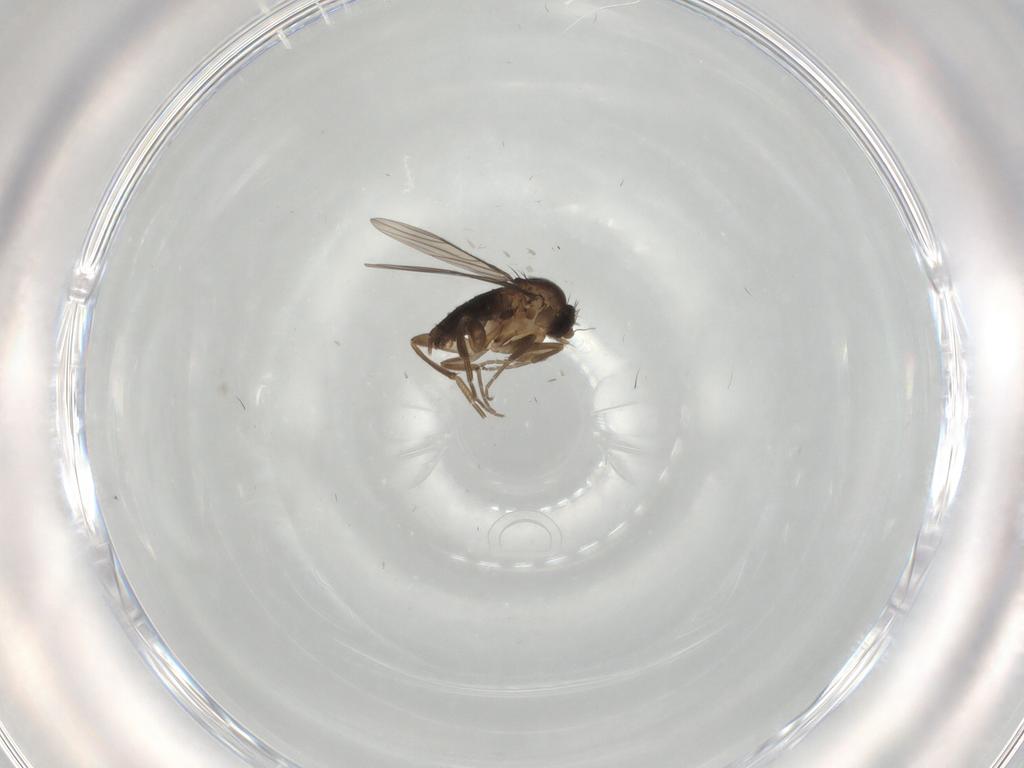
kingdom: Animalia
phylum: Arthropoda
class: Insecta
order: Diptera
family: Phoridae
